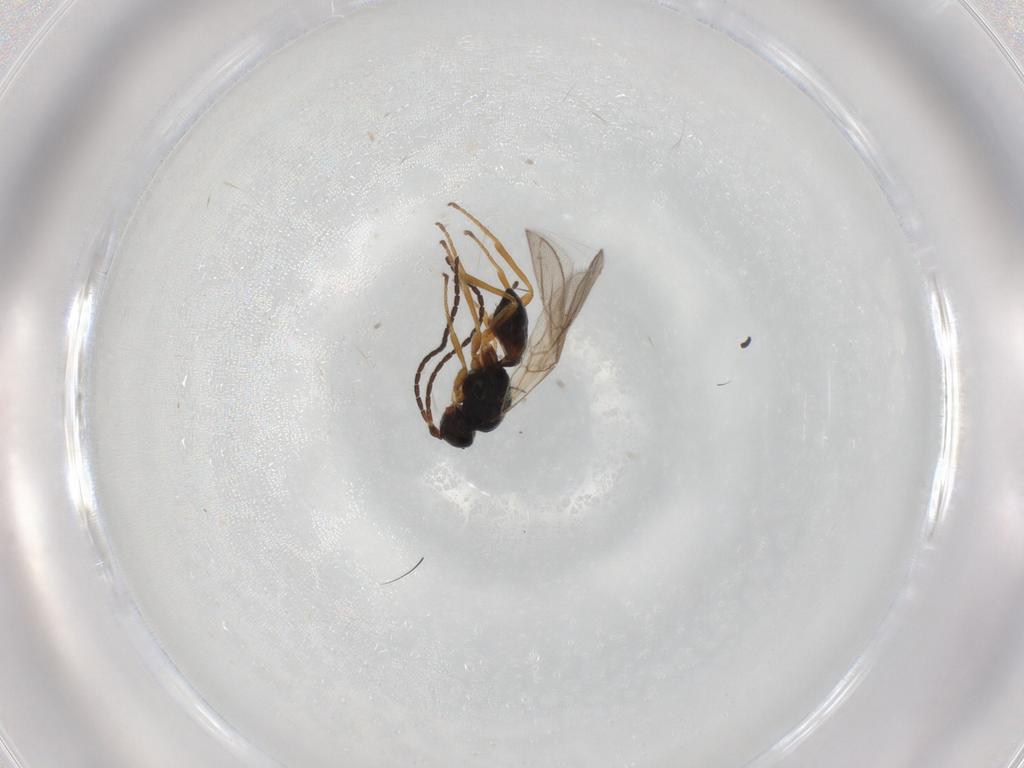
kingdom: Animalia
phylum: Arthropoda
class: Insecta
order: Hymenoptera
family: Braconidae
